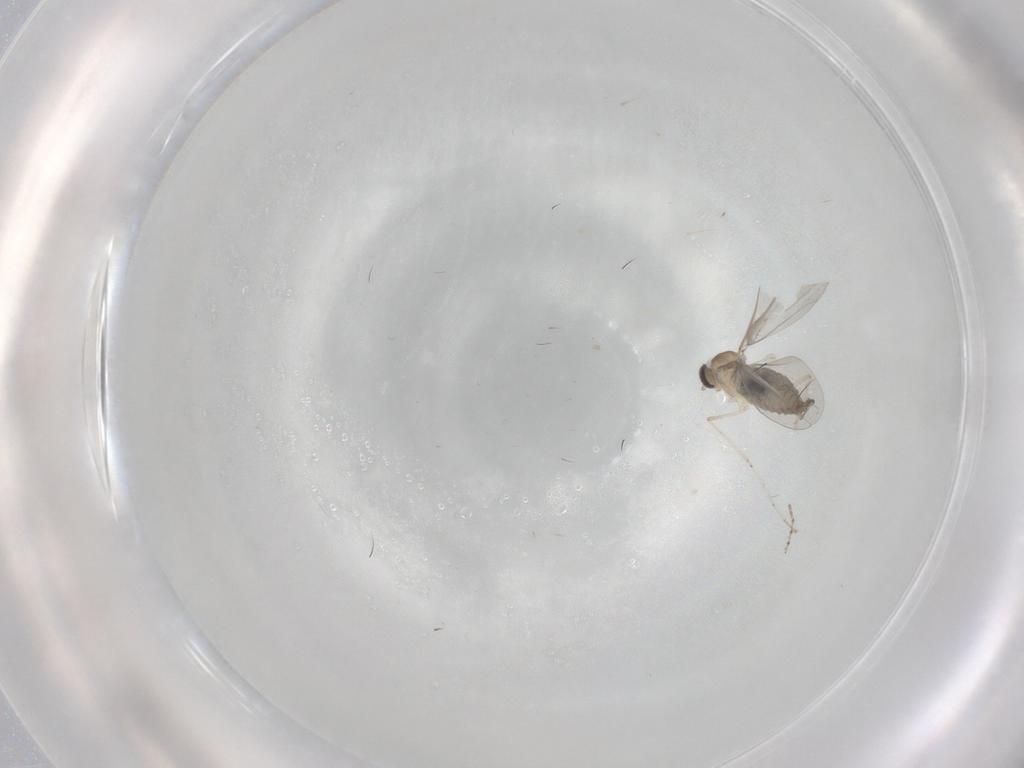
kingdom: Animalia
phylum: Arthropoda
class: Insecta
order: Diptera
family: Cecidomyiidae
